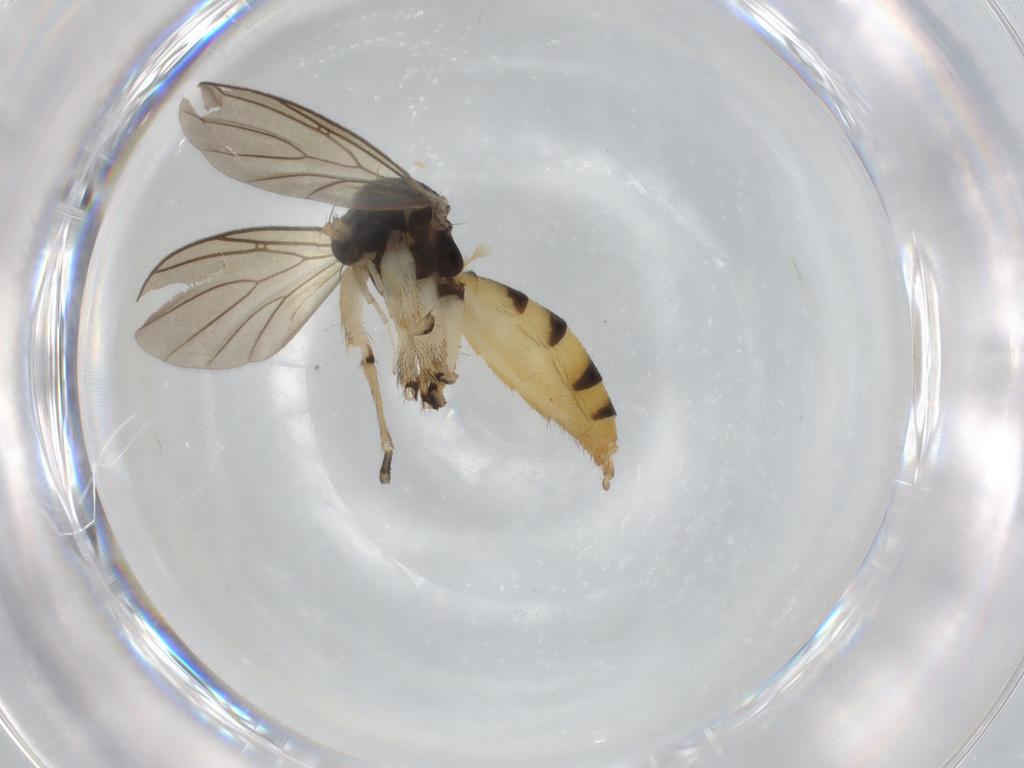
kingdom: Animalia
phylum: Arthropoda
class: Insecta
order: Diptera
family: Mycetophilidae
